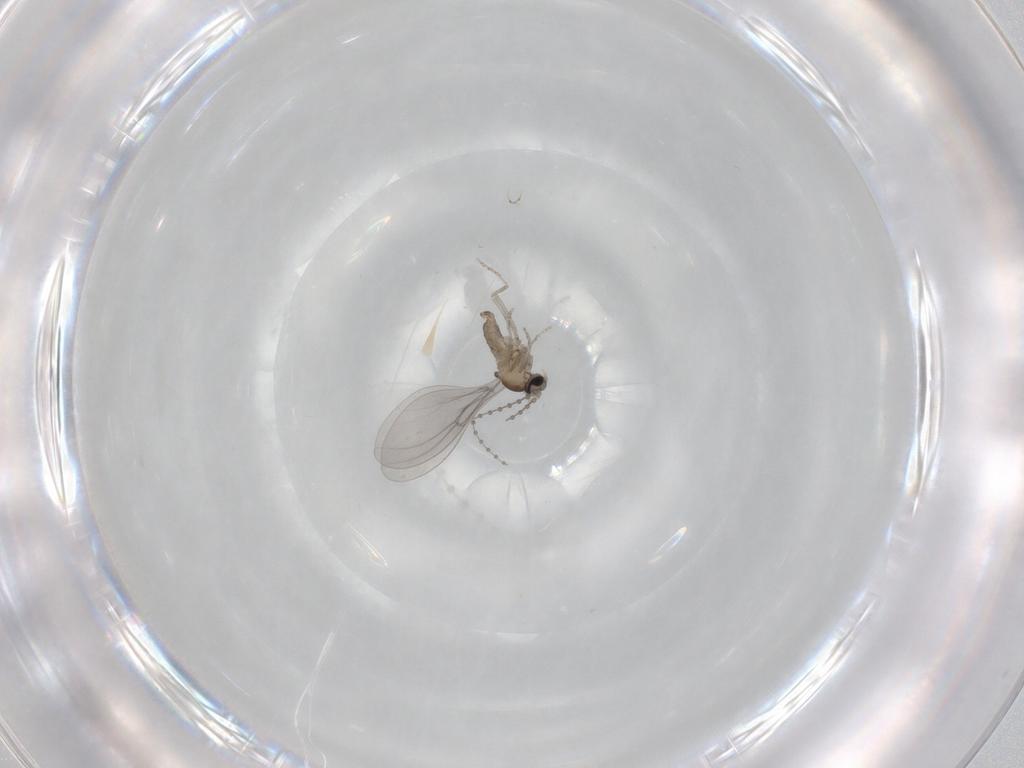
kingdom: Animalia
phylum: Arthropoda
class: Insecta
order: Diptera
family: Cecidomyiidae
